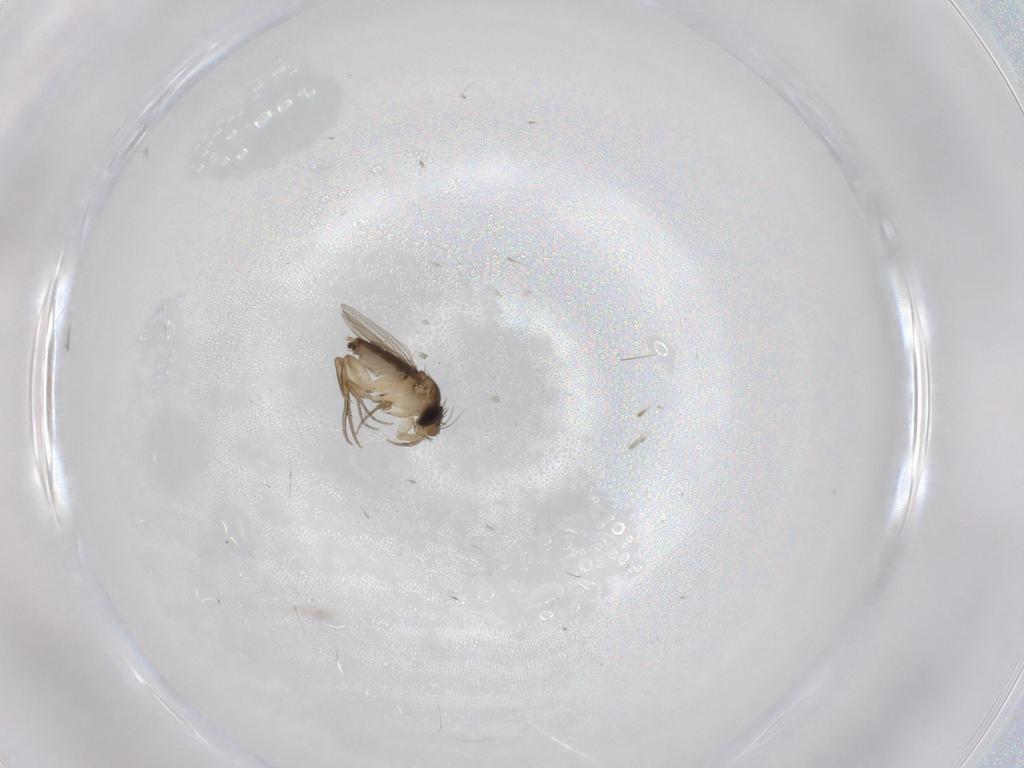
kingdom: Animalia
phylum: Arthropoda
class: Insecta
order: Diptera
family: Phoridae
